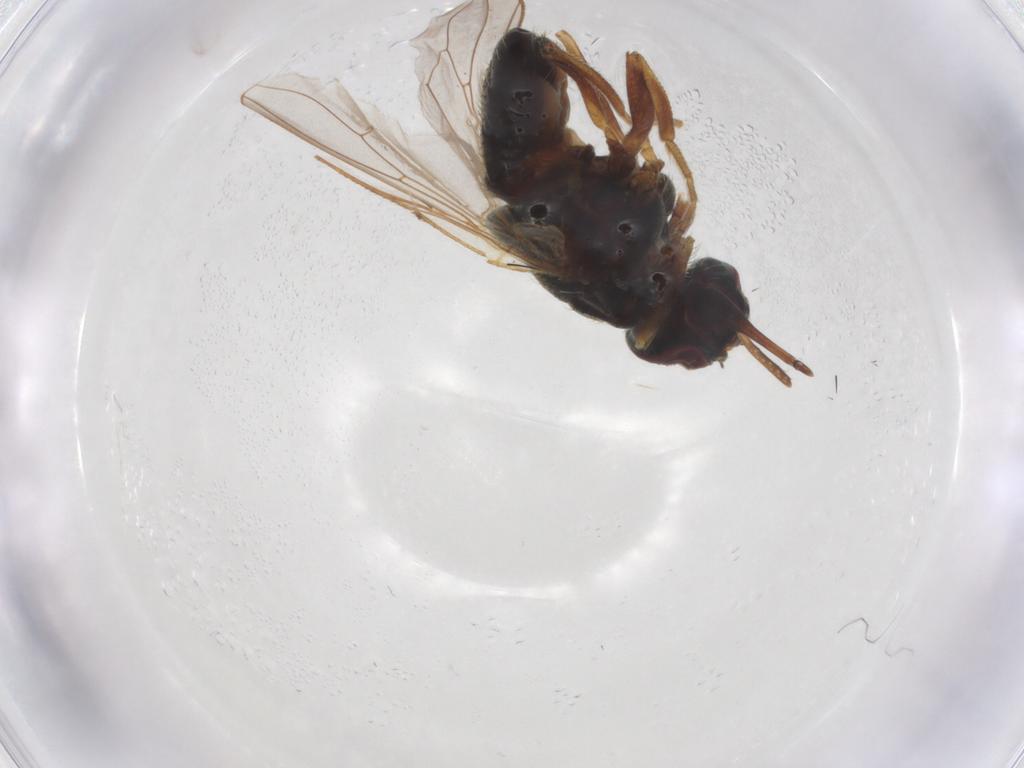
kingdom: Animalia
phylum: Arthropoda
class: Insecta
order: Diptera
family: Muscidae
